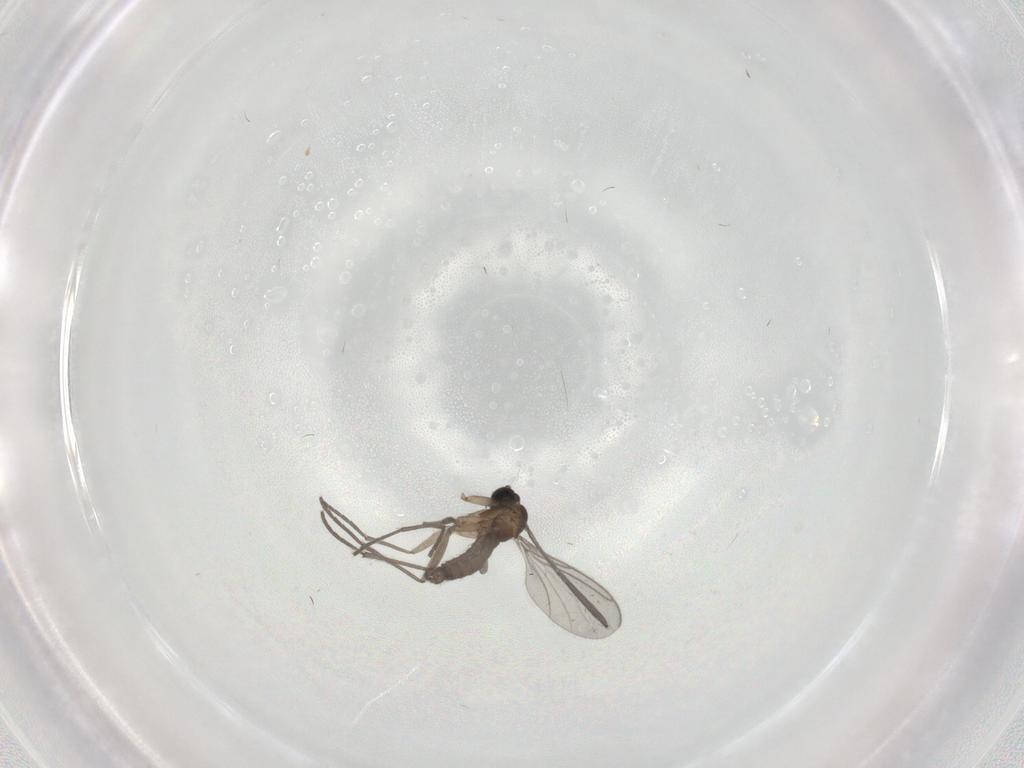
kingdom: Animalia
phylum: Arthropoda
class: Insecta
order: Diptera
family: Sciaridae
